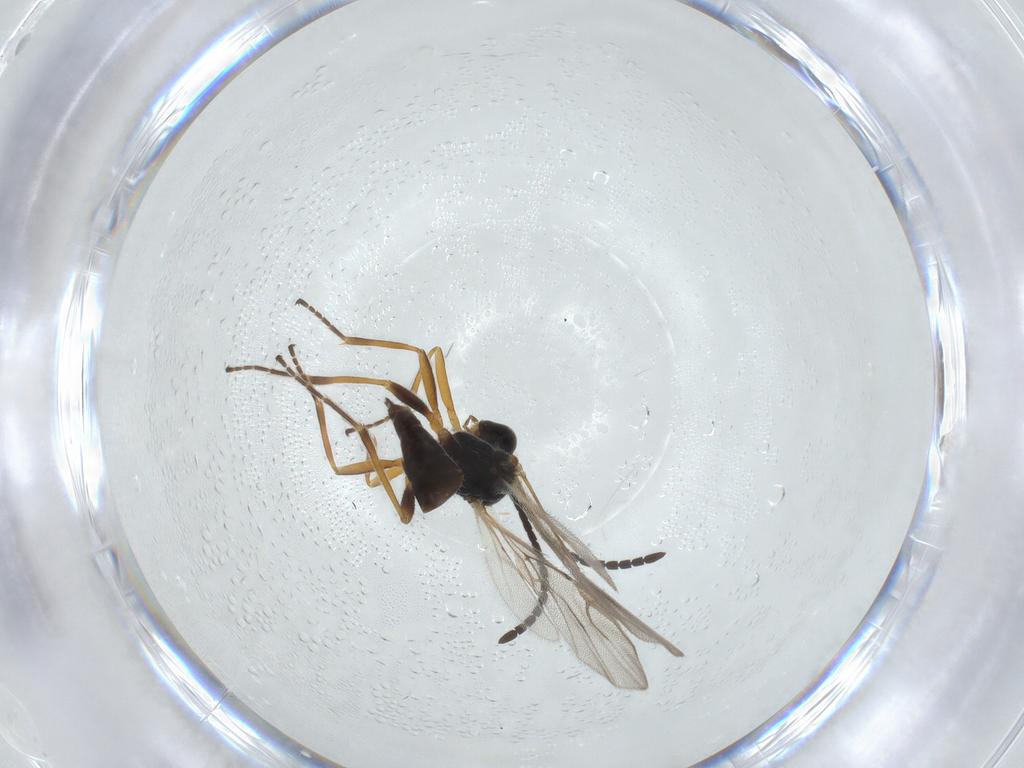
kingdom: Animalia
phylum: Arthropoda
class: Insecta
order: Hymenoptera
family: Braconidae
